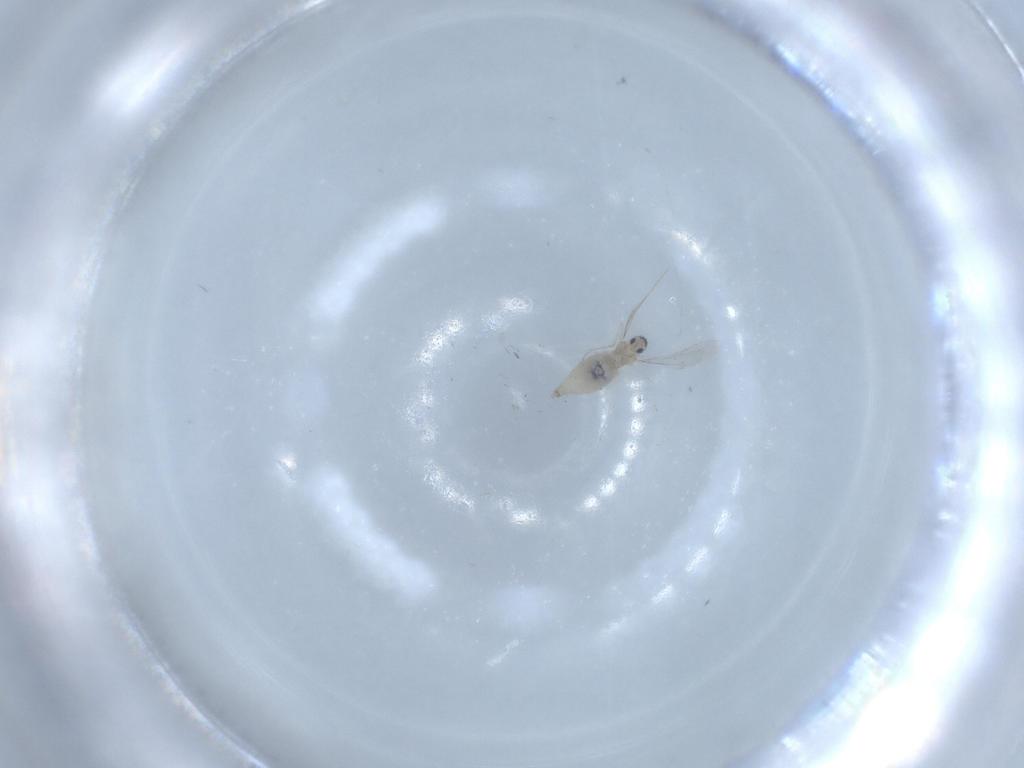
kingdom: Animalia
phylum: Arthropoda
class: Insecta
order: Diptera
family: Cecidomyiidae
